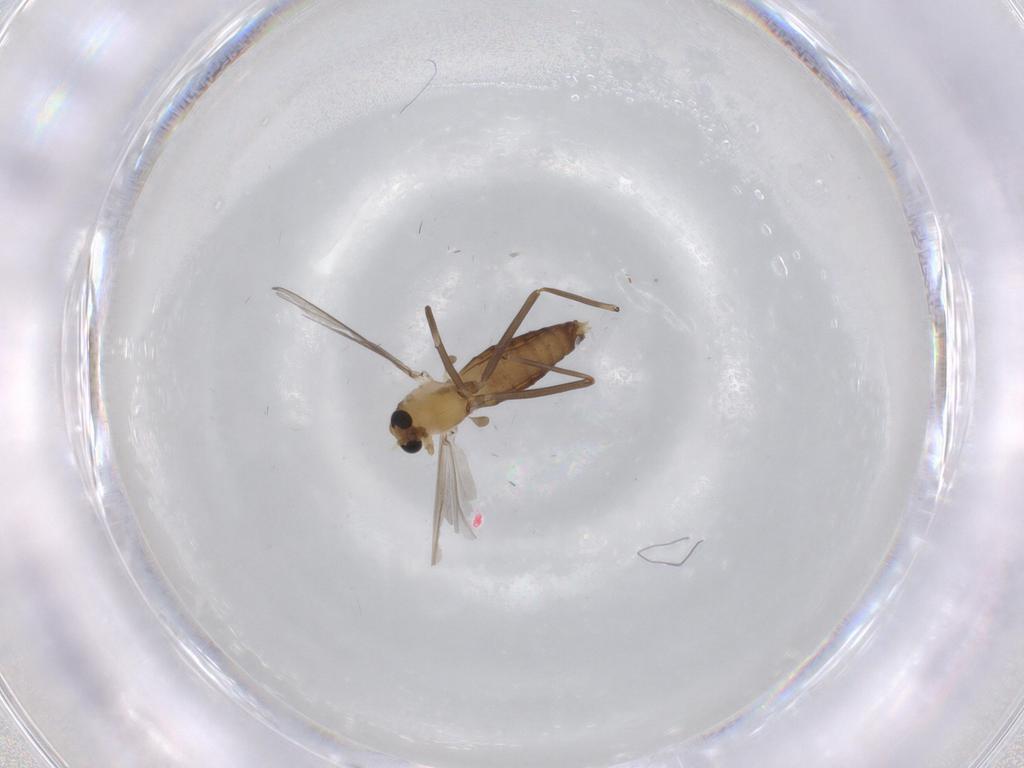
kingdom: Animalia
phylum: Arthropoda
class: Insecta
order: Diptera
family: Chironomidae
